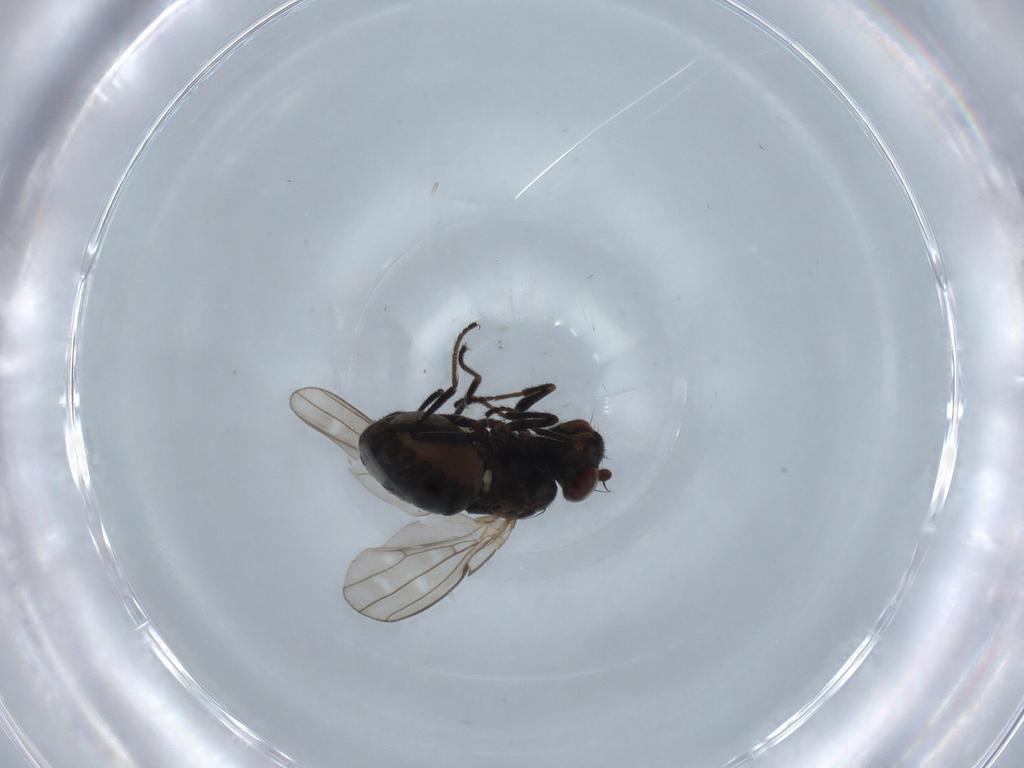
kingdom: Animalia
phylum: Arthropoda
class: Insecta
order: Diptera
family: Ephydridae
